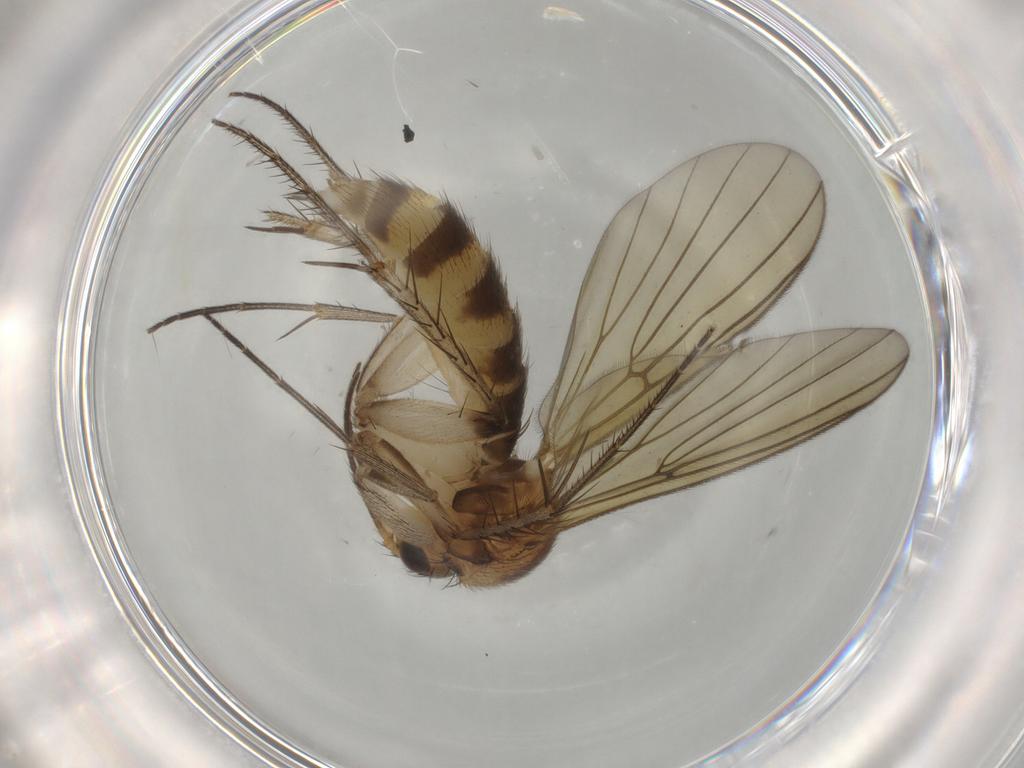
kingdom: Animalia
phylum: Arthropoda
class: Insecta
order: Diptera
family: Mycetophilidae
